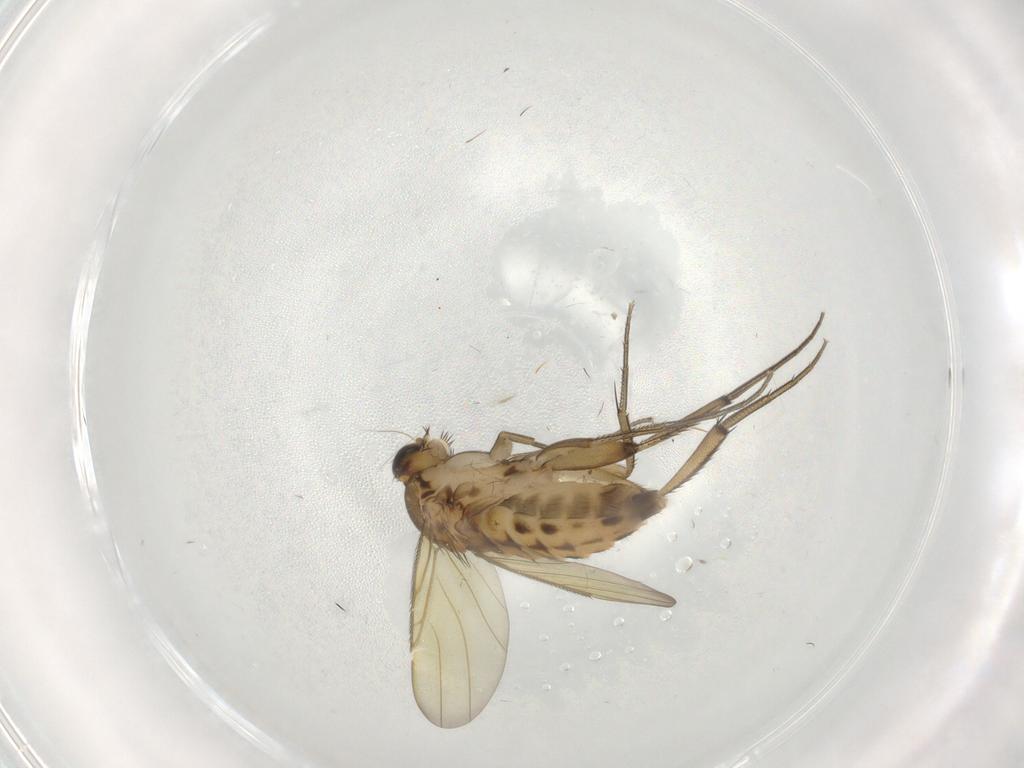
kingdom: Animalia
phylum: Arthropoda
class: Insecta
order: Diptera
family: Phoridae
